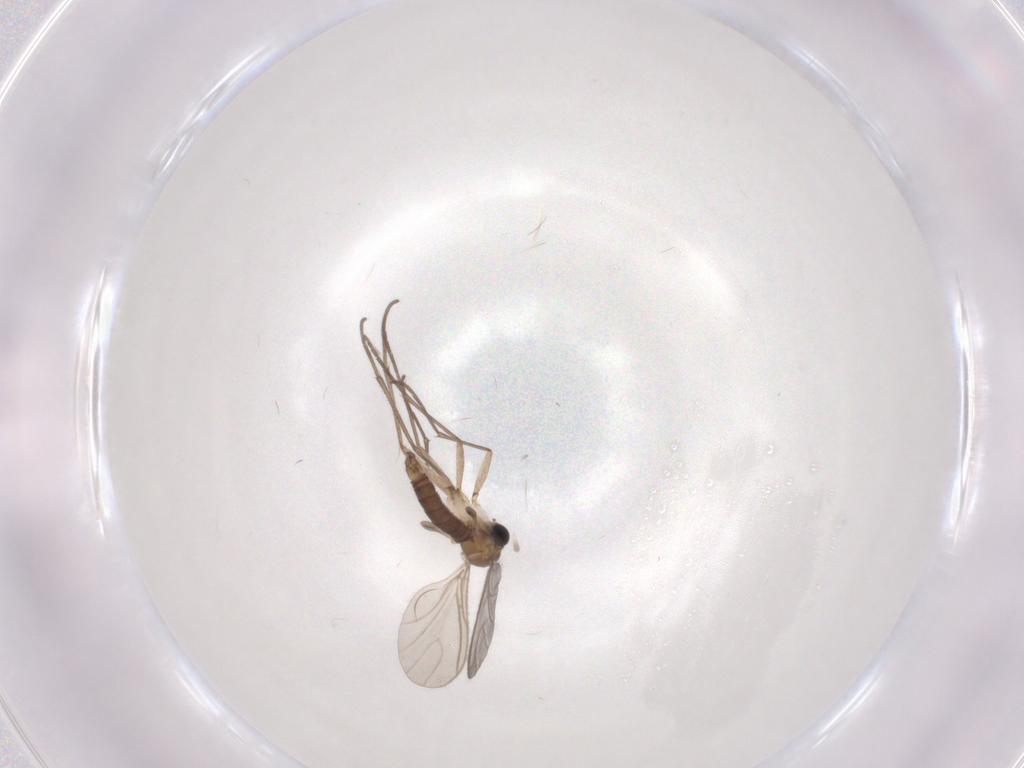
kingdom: Animalia
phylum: Arthropoda
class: Insecta
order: Diptera
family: Sciaridae
